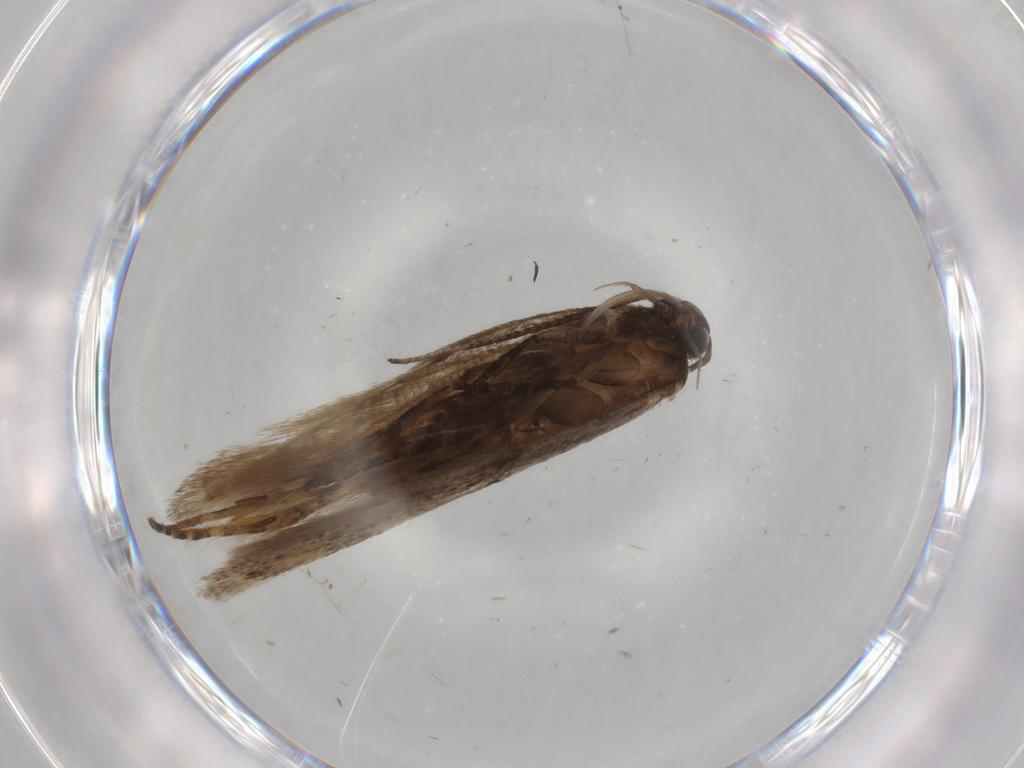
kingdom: Animalia
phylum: Arthropoda
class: Insecta
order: Lepidoptera
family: Gelechiidae
